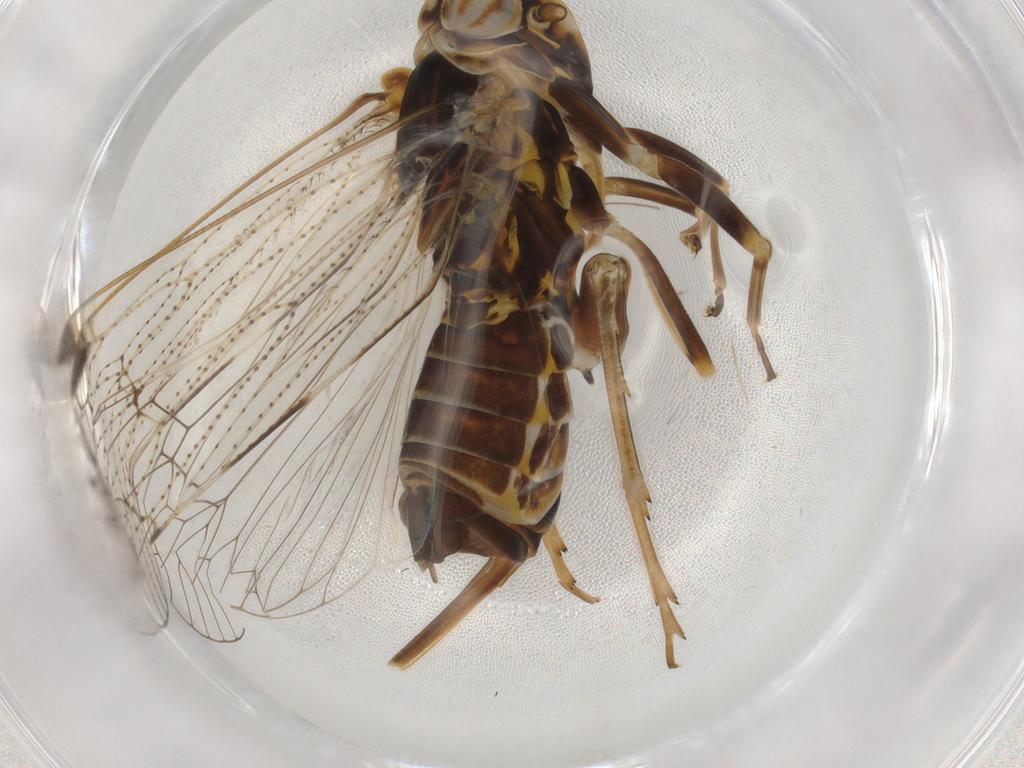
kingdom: Animalia
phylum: Arthropoda
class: Insecta
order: Hemiptera
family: Cixiidae
